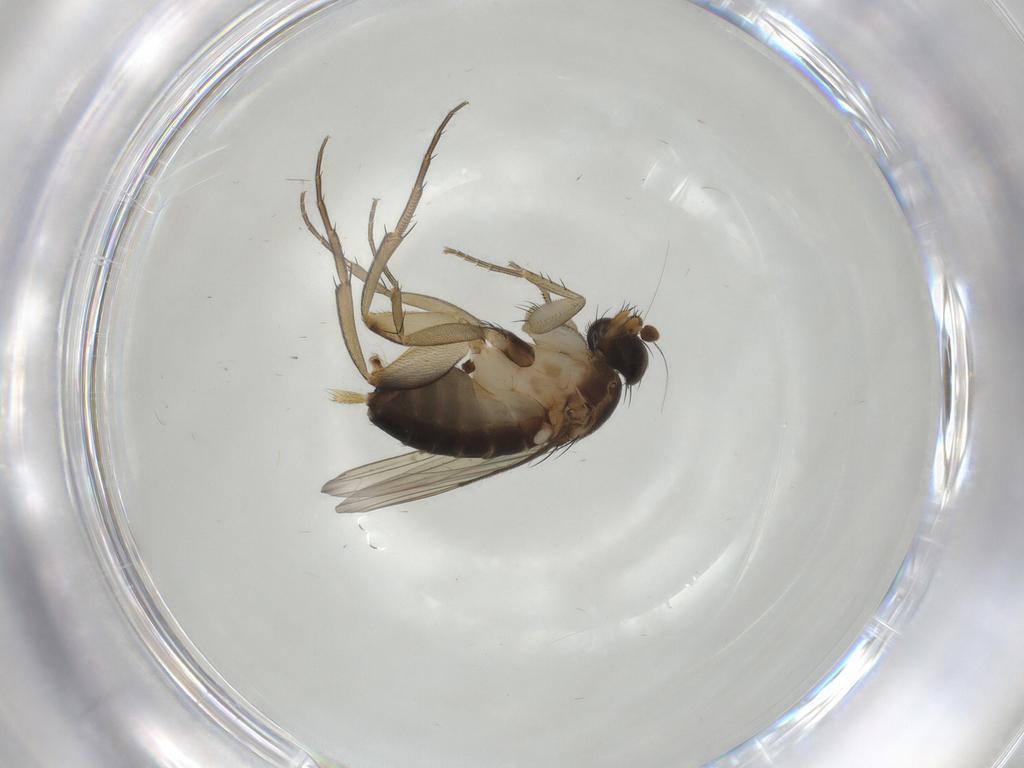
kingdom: Animalia
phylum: Arthropoda
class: Insecta
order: Diptera
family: Phoridae
